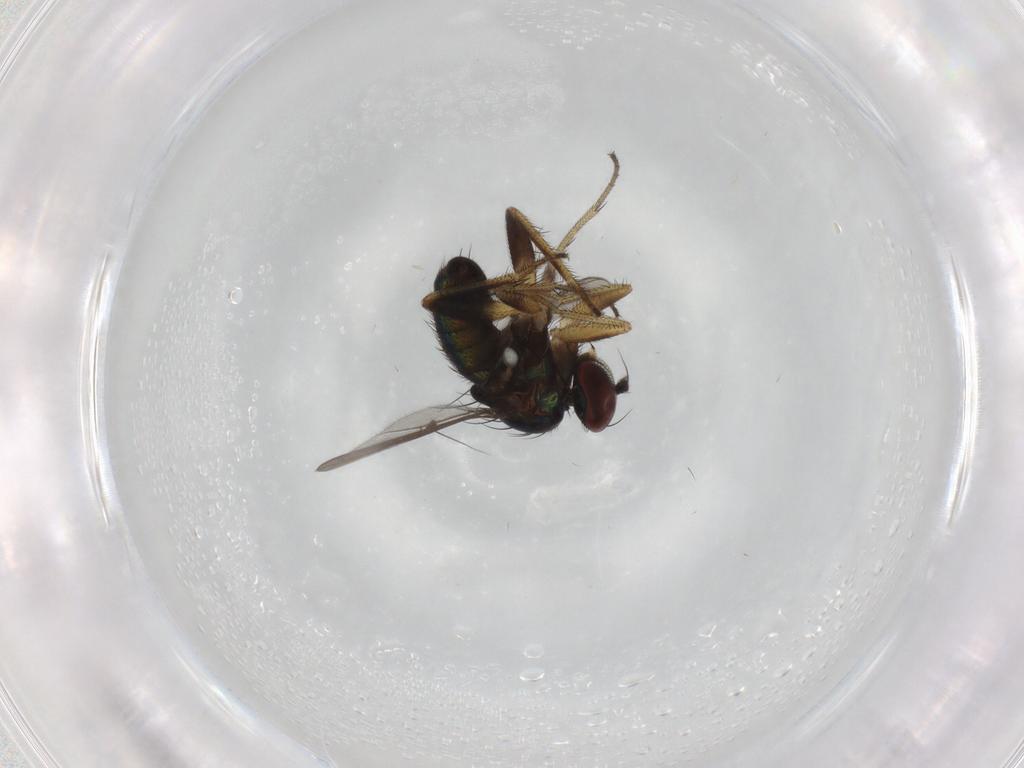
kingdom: Animalia
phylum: Arthropoda
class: Insecta
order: Diptera
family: Dolichopodidae
